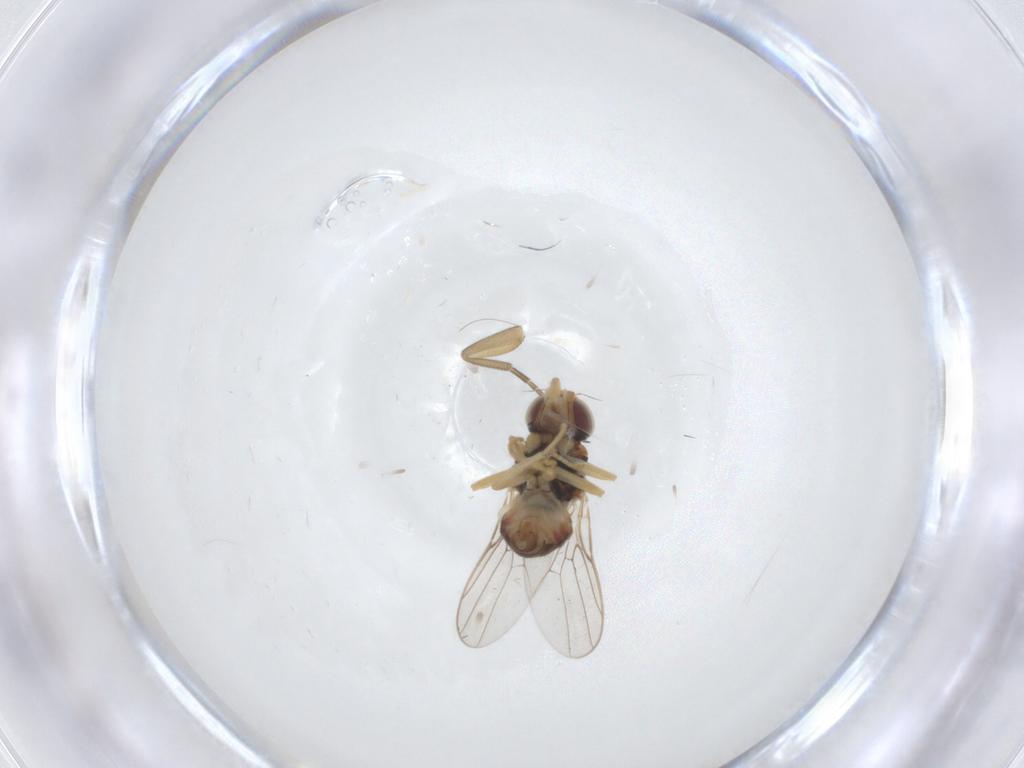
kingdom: Animalia
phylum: Arthropoda
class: Insecta
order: Diptera
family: Chloropidae
